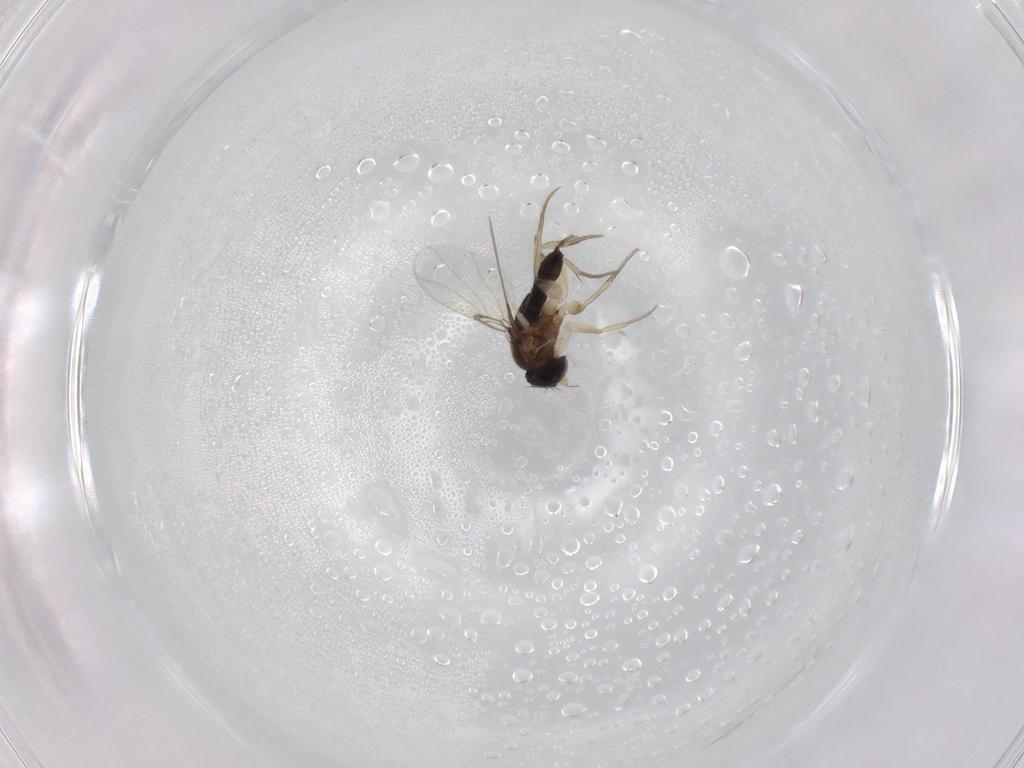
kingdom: Animalia
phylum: Arthropoda
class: Insecta
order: Diptera
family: Phoridae
